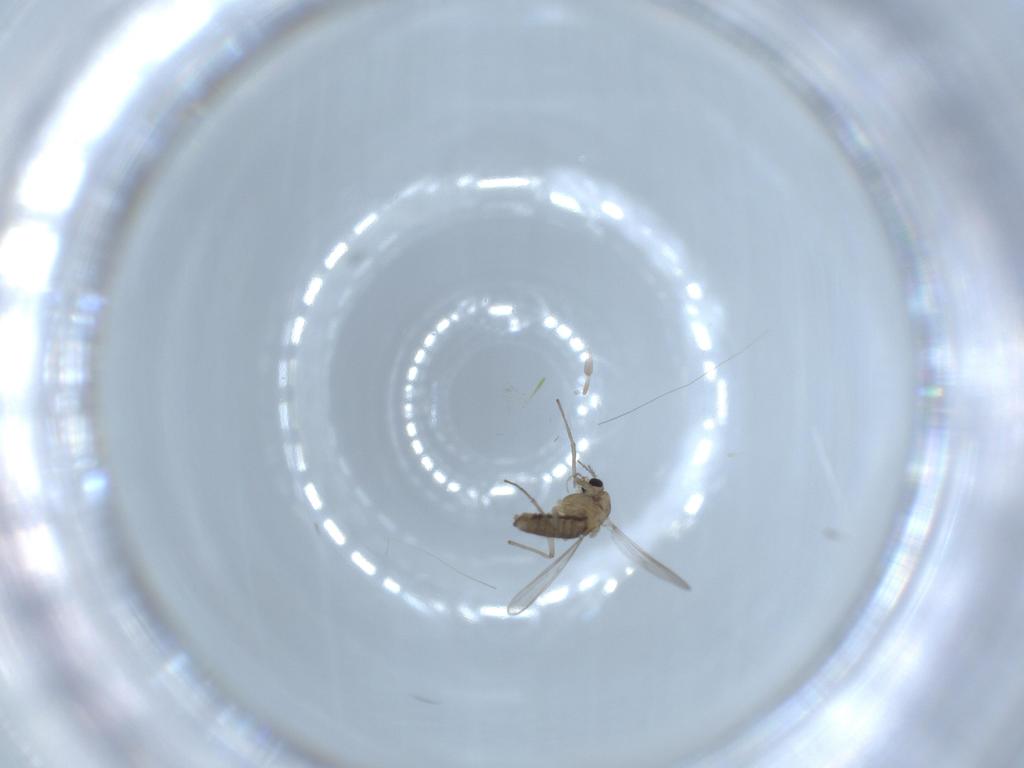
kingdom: Animalia
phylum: Arthropoda
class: Insecta
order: Diptera
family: Chironomidae
